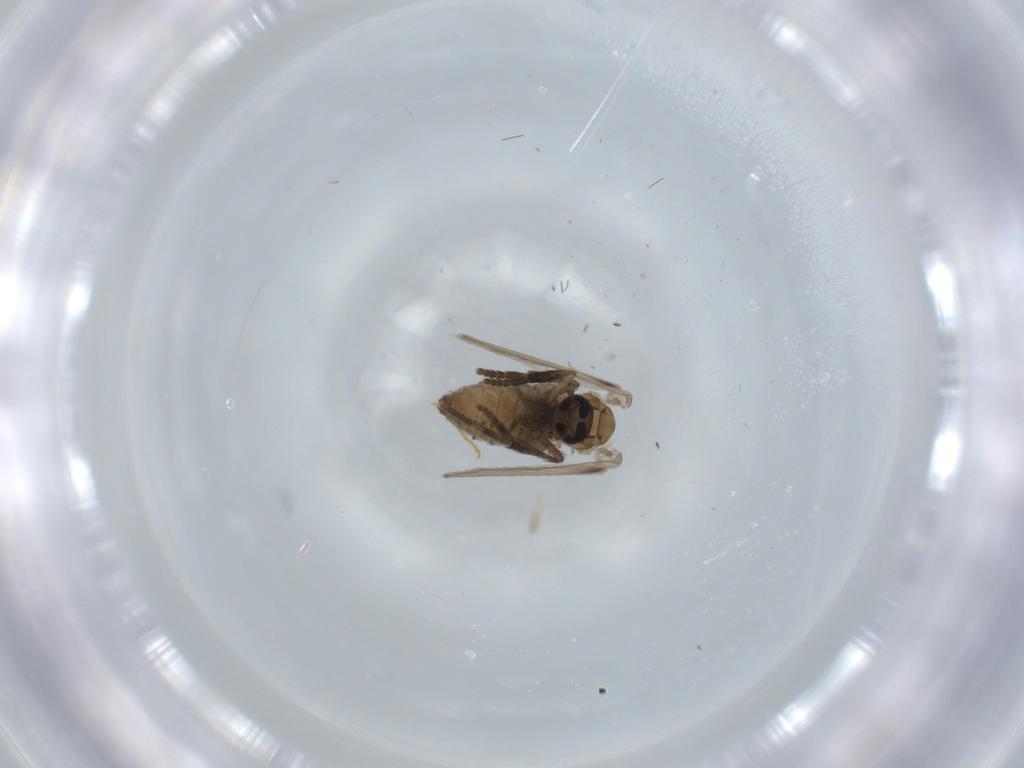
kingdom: Animalia
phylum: Arthropoda
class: Insecta
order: Diptera
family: Psychodidae
